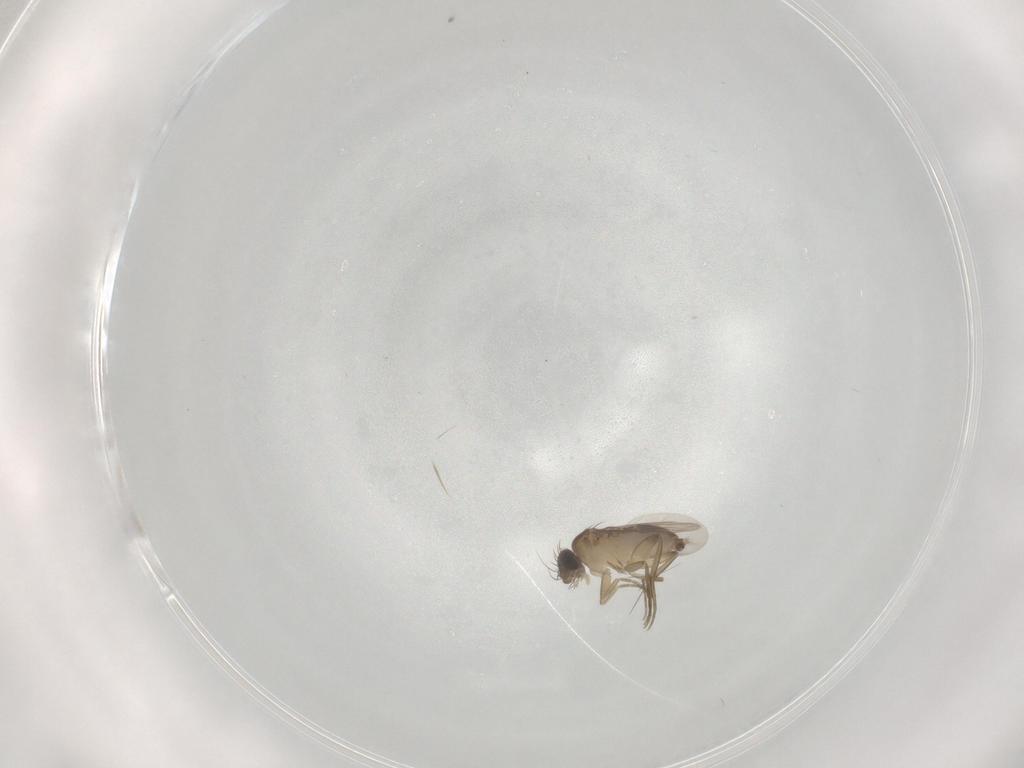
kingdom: Animalia
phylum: Arthropoda
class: Insecta
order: Diptera
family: Phoridae
